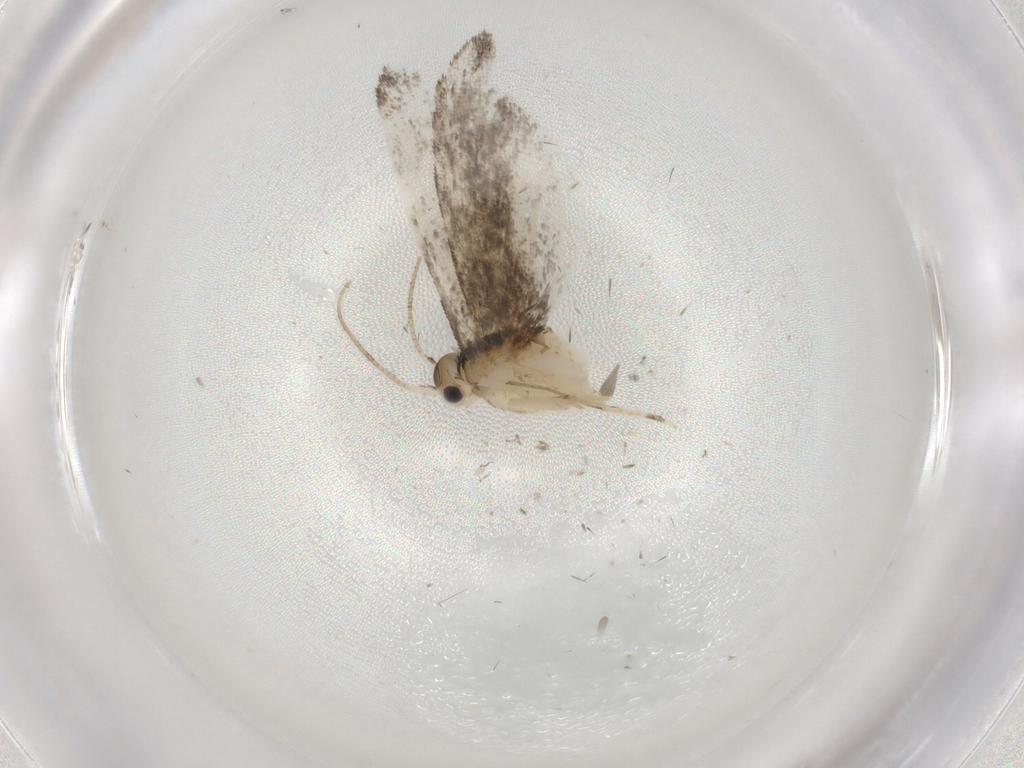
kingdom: Animalia
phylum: Arthropoda
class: Insecta
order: Lepidoptera
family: Tineidae
